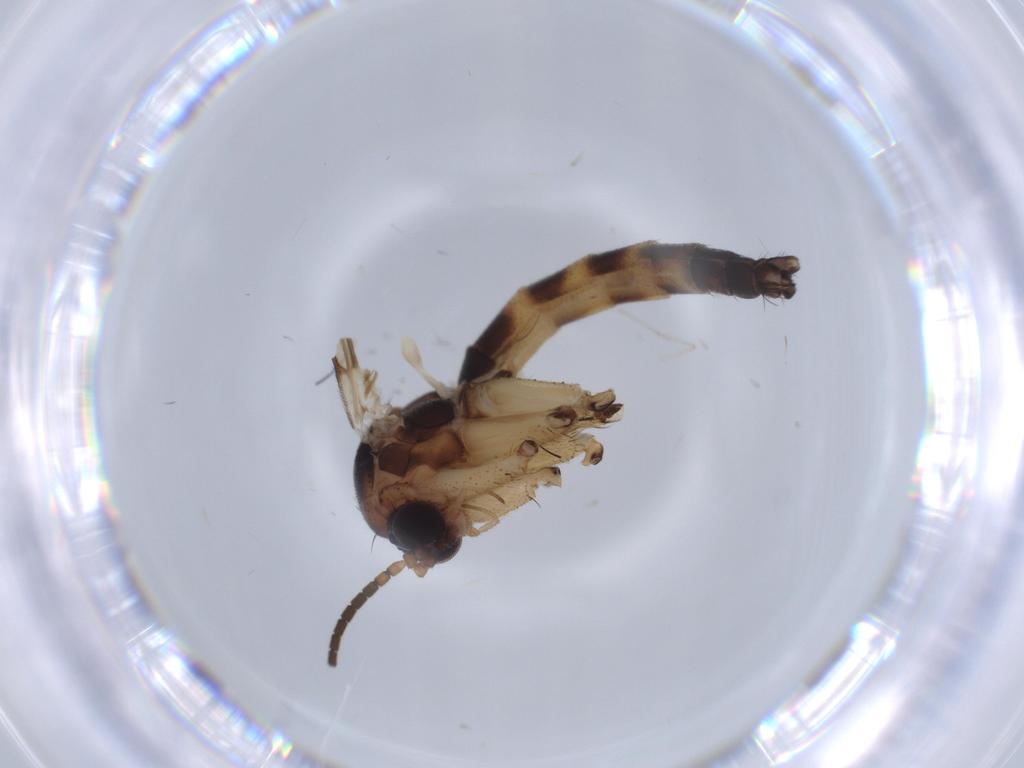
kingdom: Animalia
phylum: Arthropoda
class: Insecta
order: Diptera
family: Cecidomyiidae
